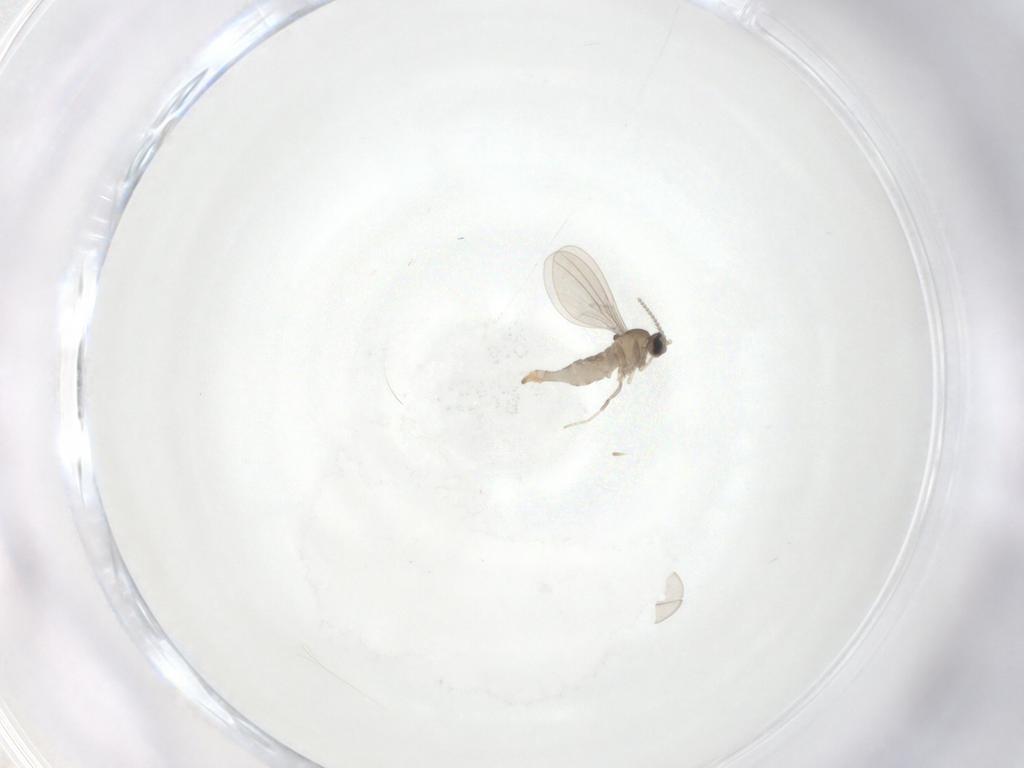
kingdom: Animalia
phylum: Arthropoda
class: Insecta
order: Diptera
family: Cecidomyiidae
